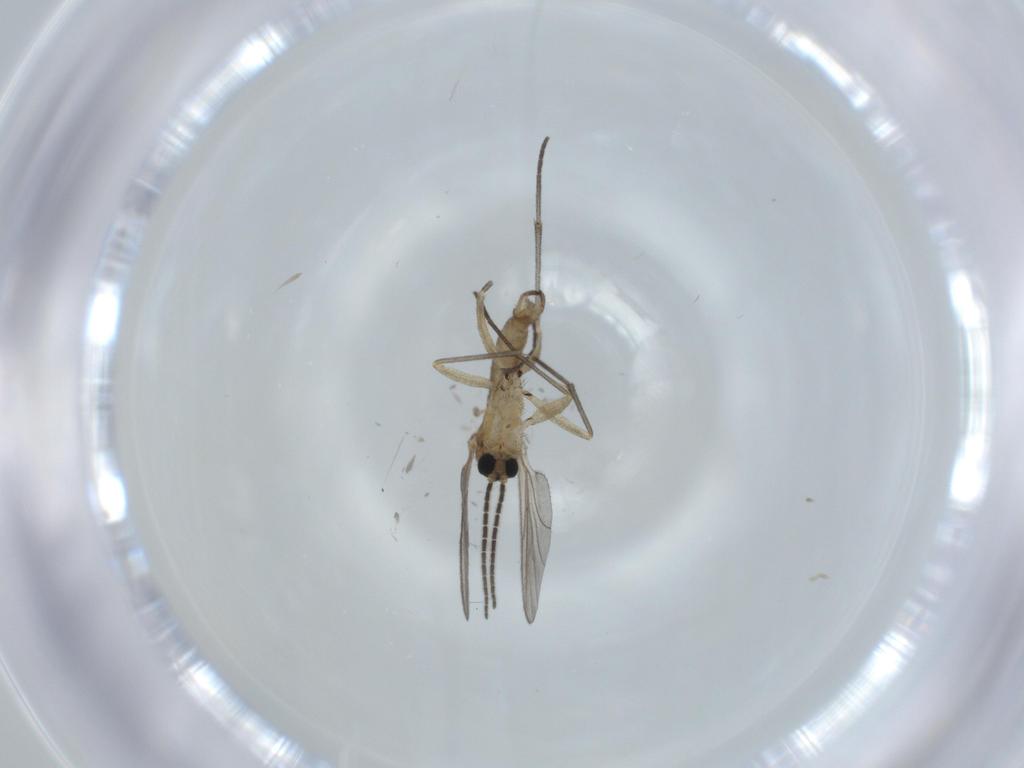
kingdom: Animalia
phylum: Arthropoda
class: Insecta
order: Diptera
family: Sciaridae
